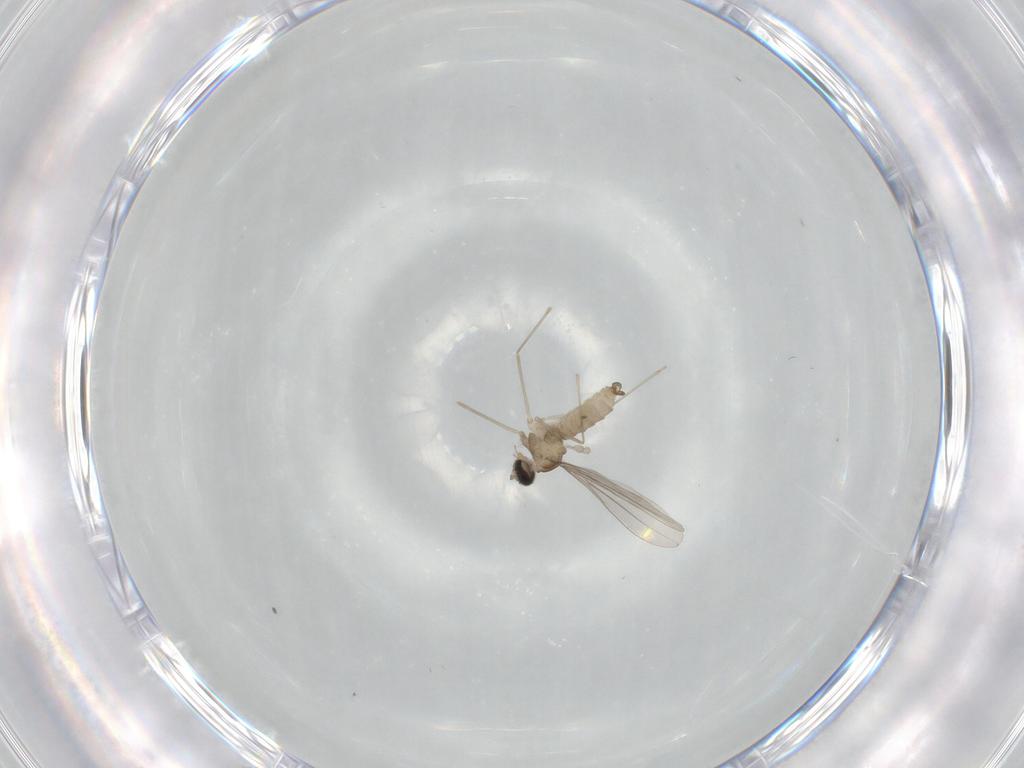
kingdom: Animalia
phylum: Arthropoda
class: Insecta
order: Diptera
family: Cecidomyiidae
